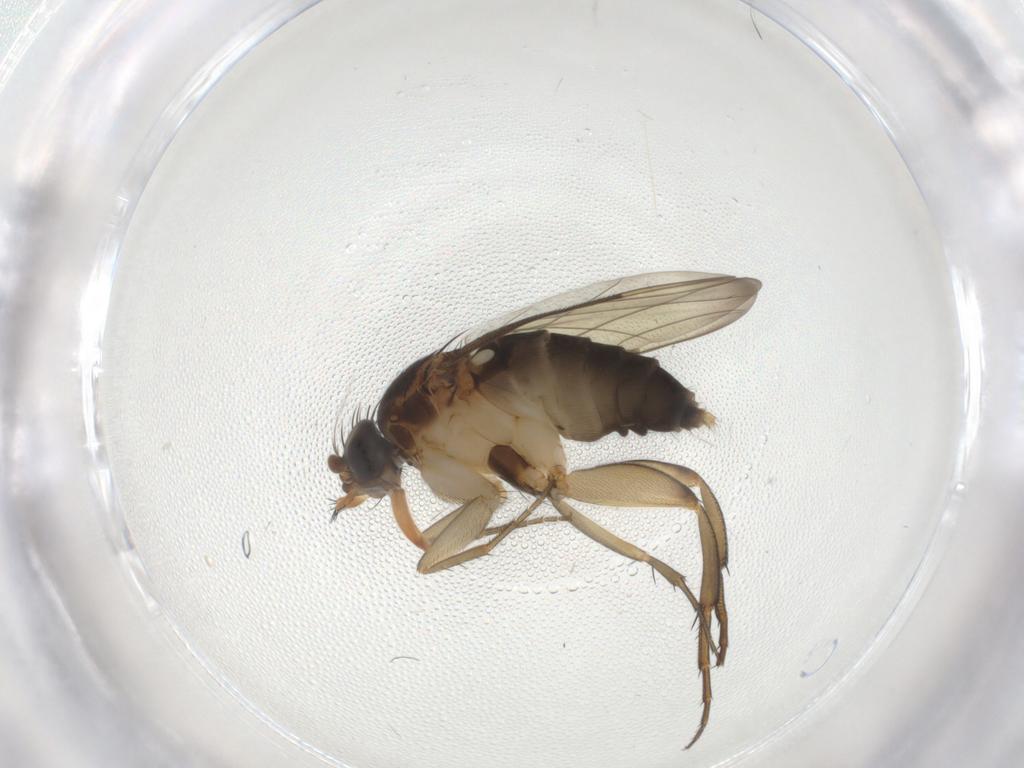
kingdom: Animalia
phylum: Arthropoda
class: Insecta
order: Diptera
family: Phoridae
